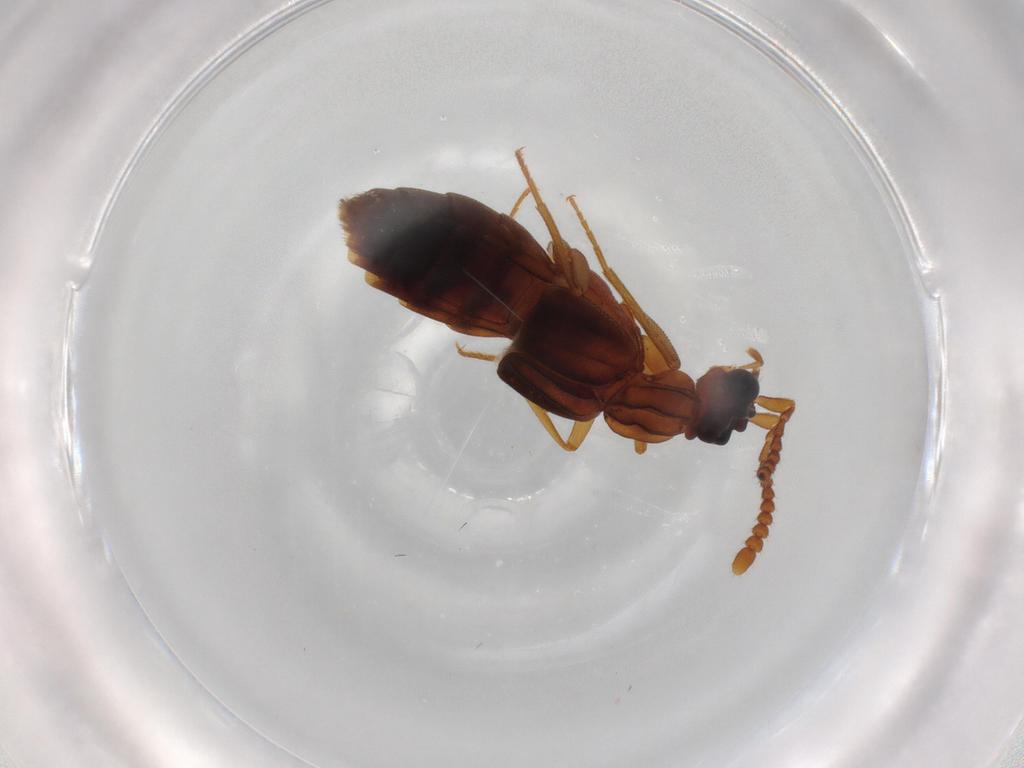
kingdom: Animalia
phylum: Arthropoda
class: Insecta
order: Coleoptera
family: Staphylinidae
